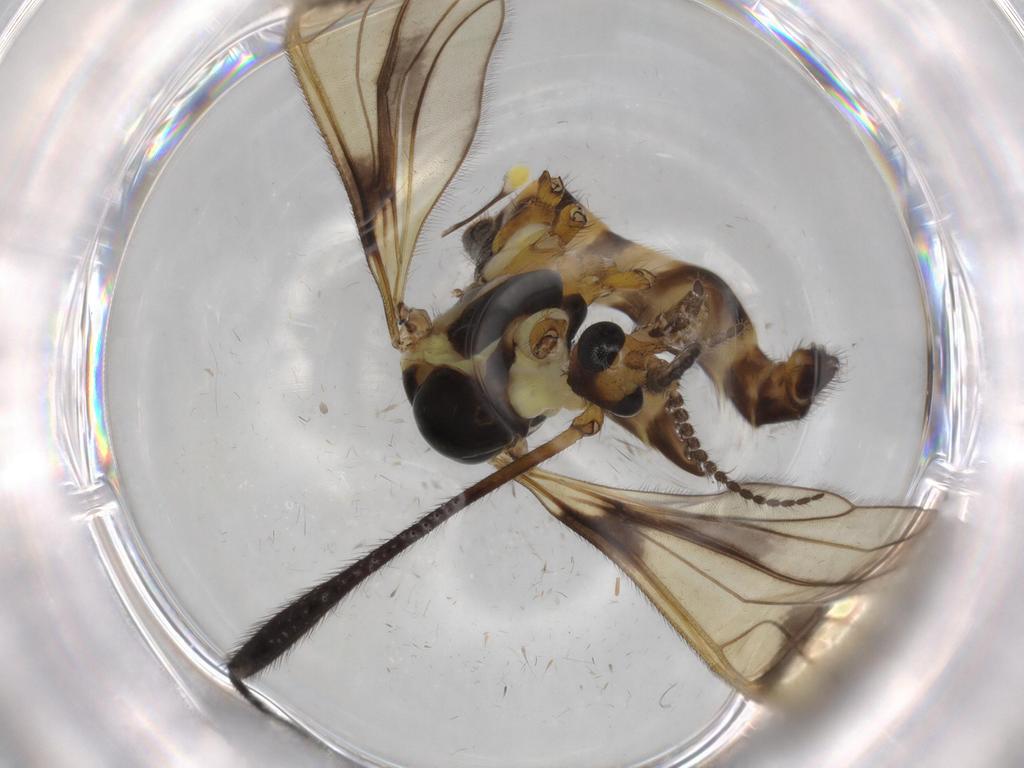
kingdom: Animalia
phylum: Arthropoda
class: Insecta
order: Diptera
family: Limoniidae
